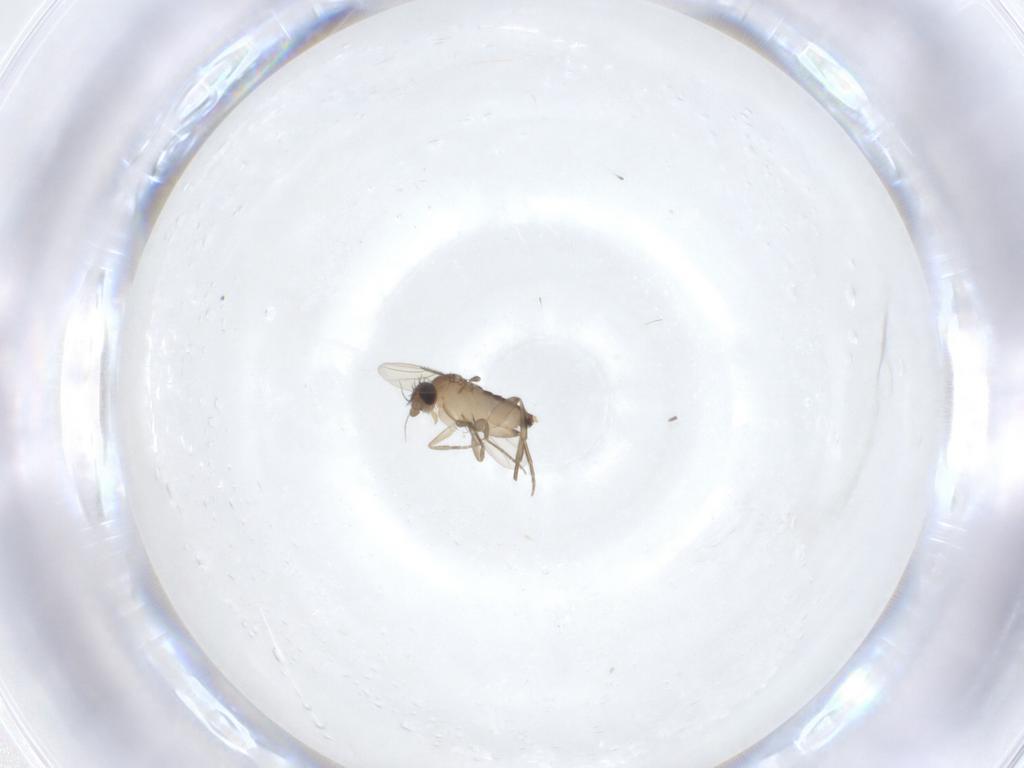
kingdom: Animalia
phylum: Arthropoda
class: Insecta
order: Diptera
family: Phoridae
